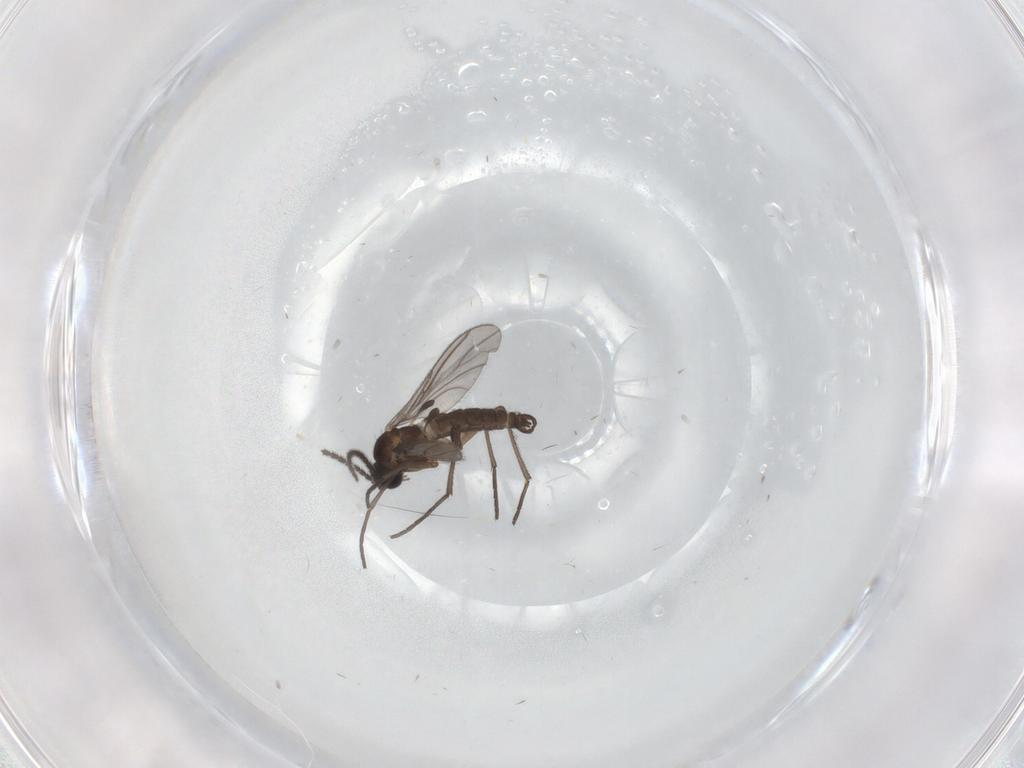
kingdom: Animalia
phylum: Arthropoda
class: Insecta
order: Diptera
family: Sciaridae
